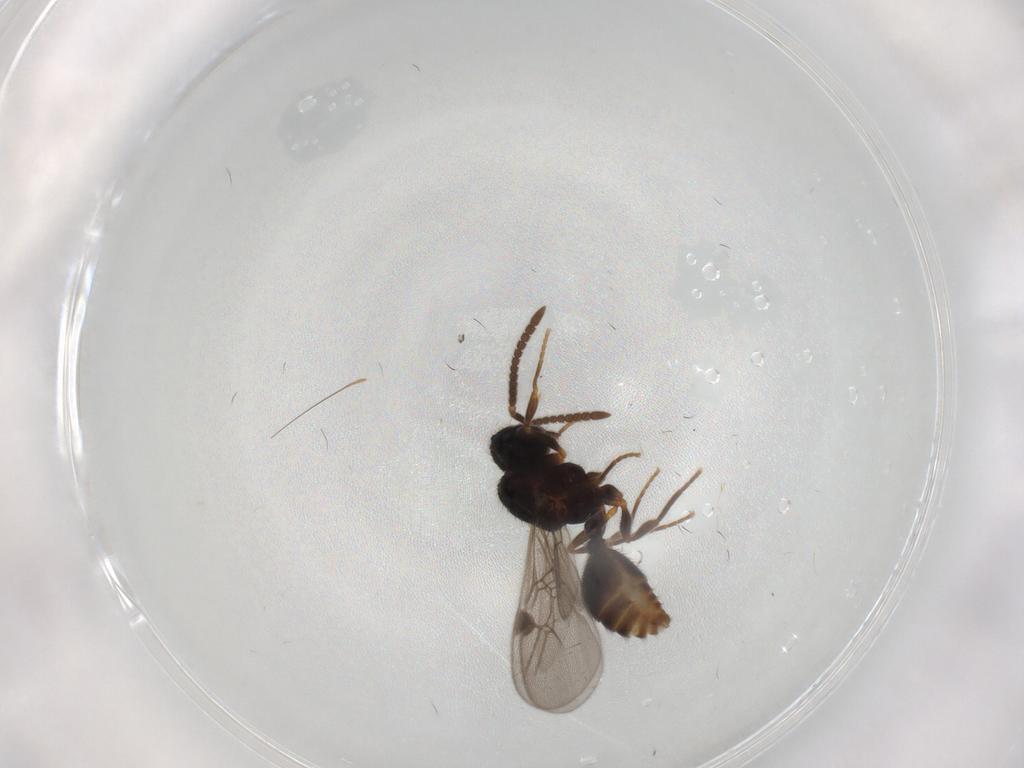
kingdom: Animalia
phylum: Arthropoda
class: Insecta
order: Hymenoptera
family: Formicidae
